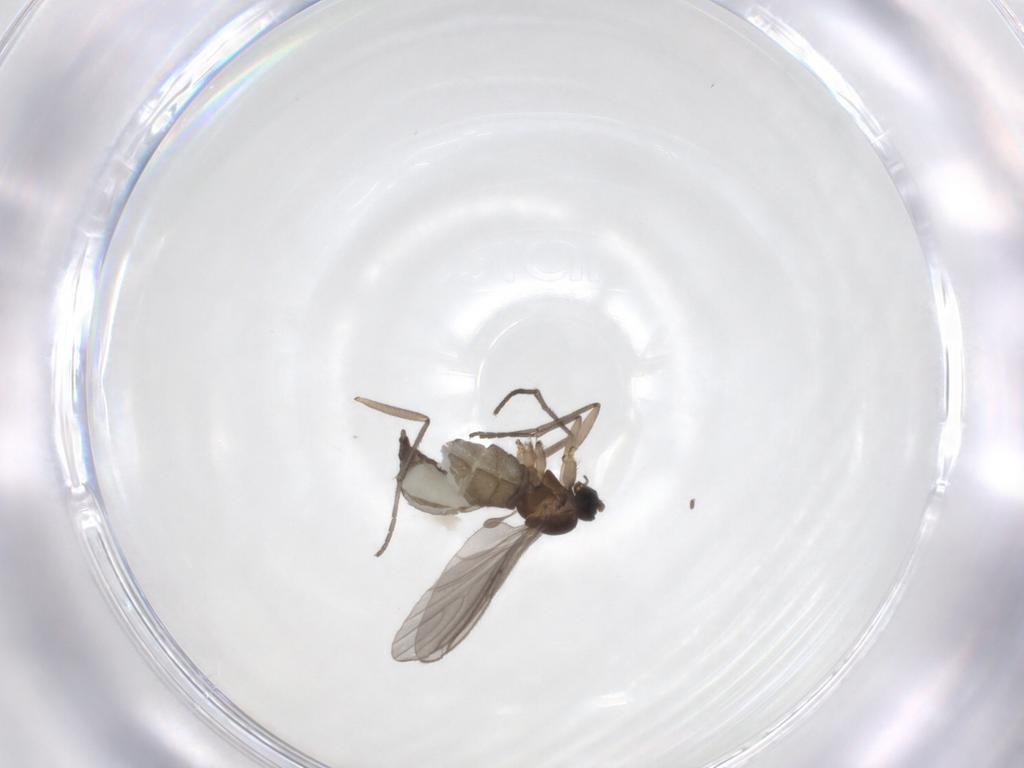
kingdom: Animalia
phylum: Arthropoda
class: Insecta
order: Diptera
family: Sciaridae
